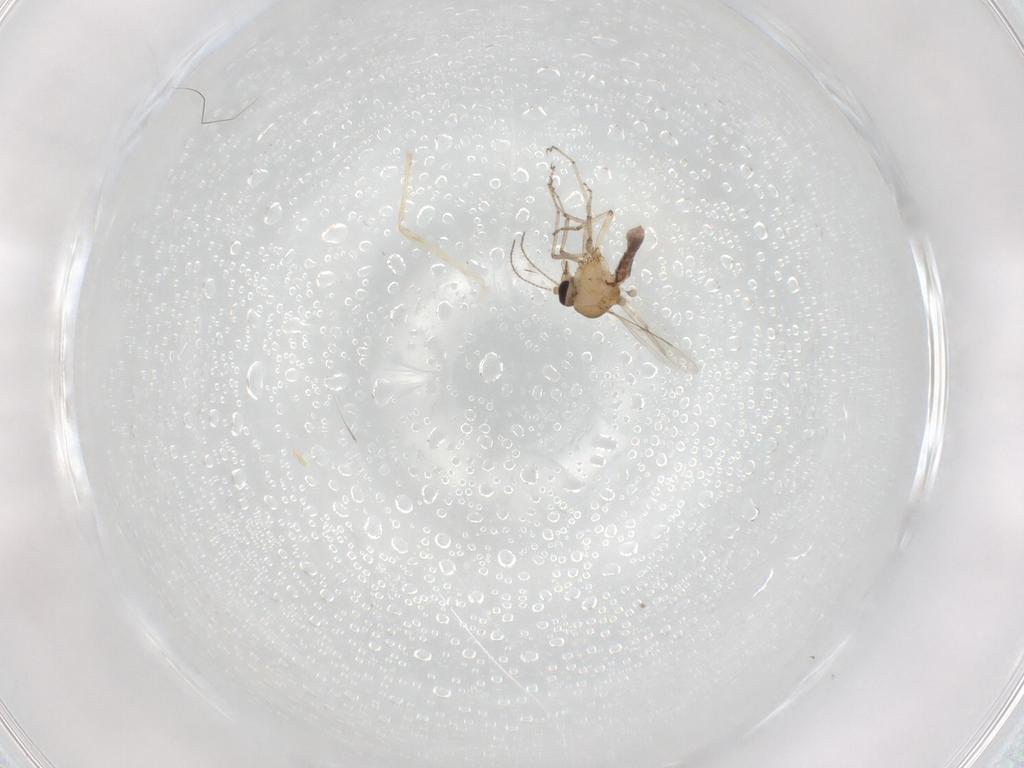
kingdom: Animalia
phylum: Arthropoda
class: Insecta
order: Diptera
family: Ceratopogonidae
